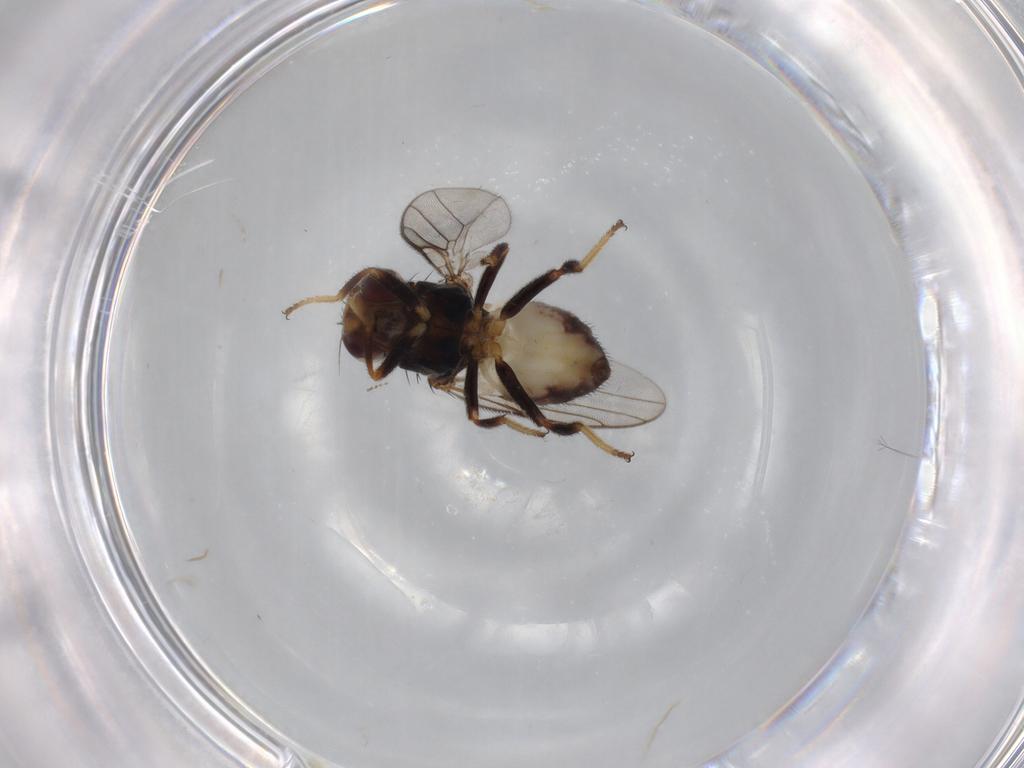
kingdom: Animalia
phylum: Arthropoda
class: Insecta
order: Diptera
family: Chloropidae
